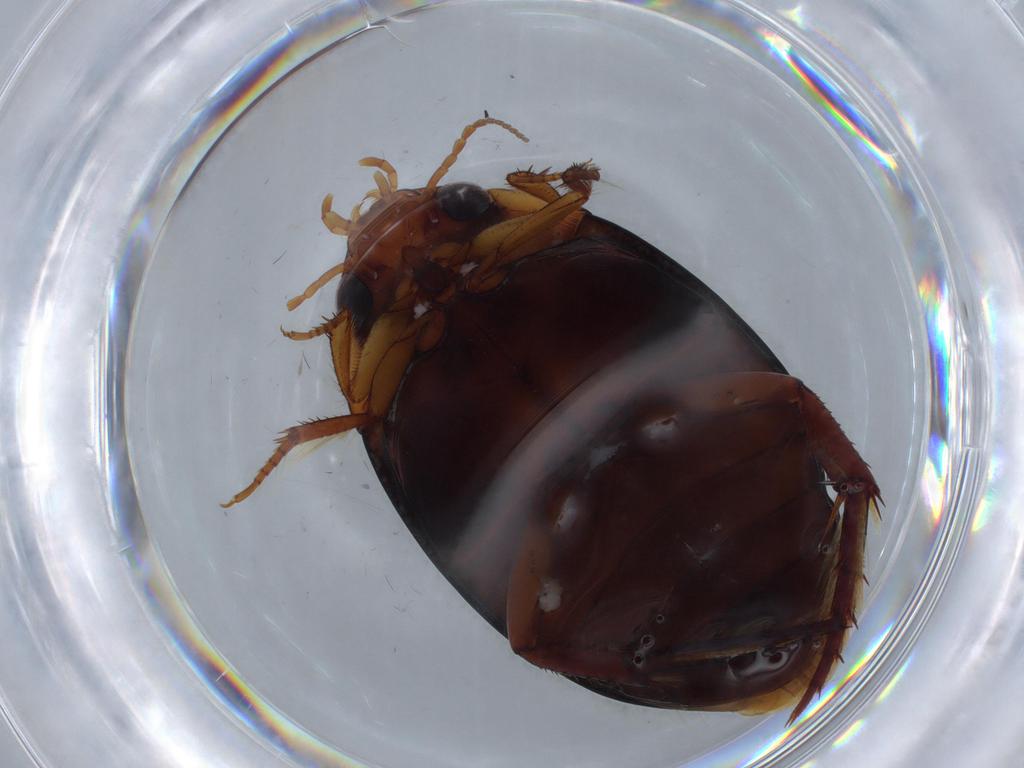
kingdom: Animalia
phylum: Arthropoda
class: Insecta
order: Coleoptera
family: Dytiscidae
